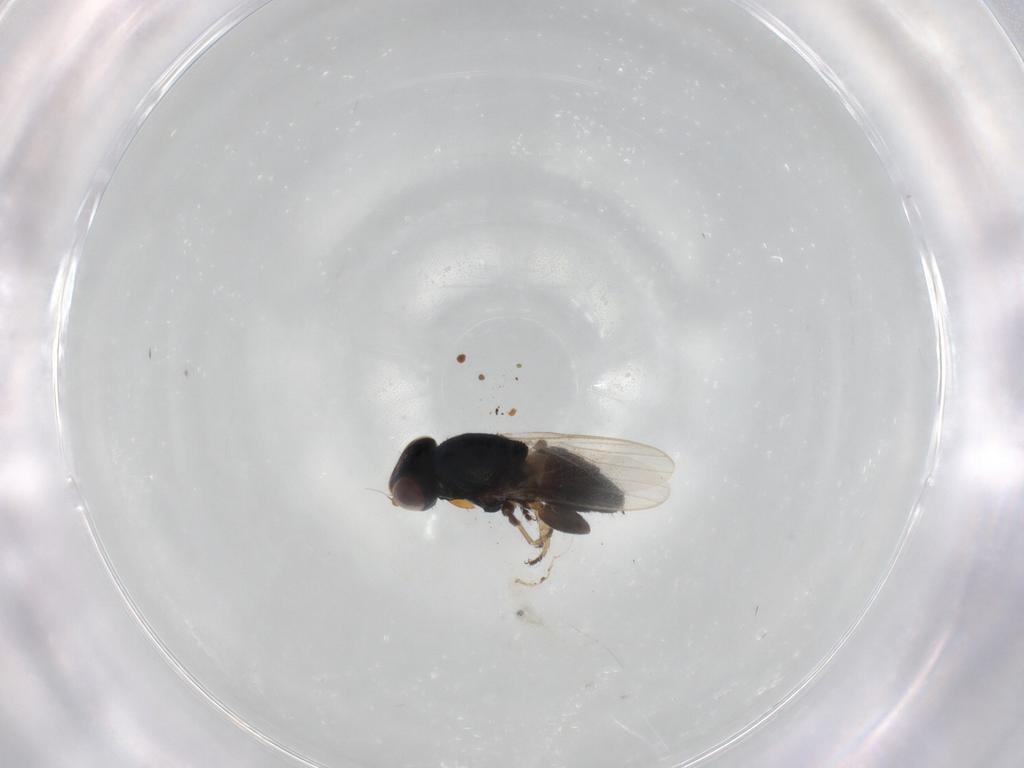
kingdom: Animalia
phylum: Arthropoda
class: Insecta
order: Diptera
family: Chloropidae
